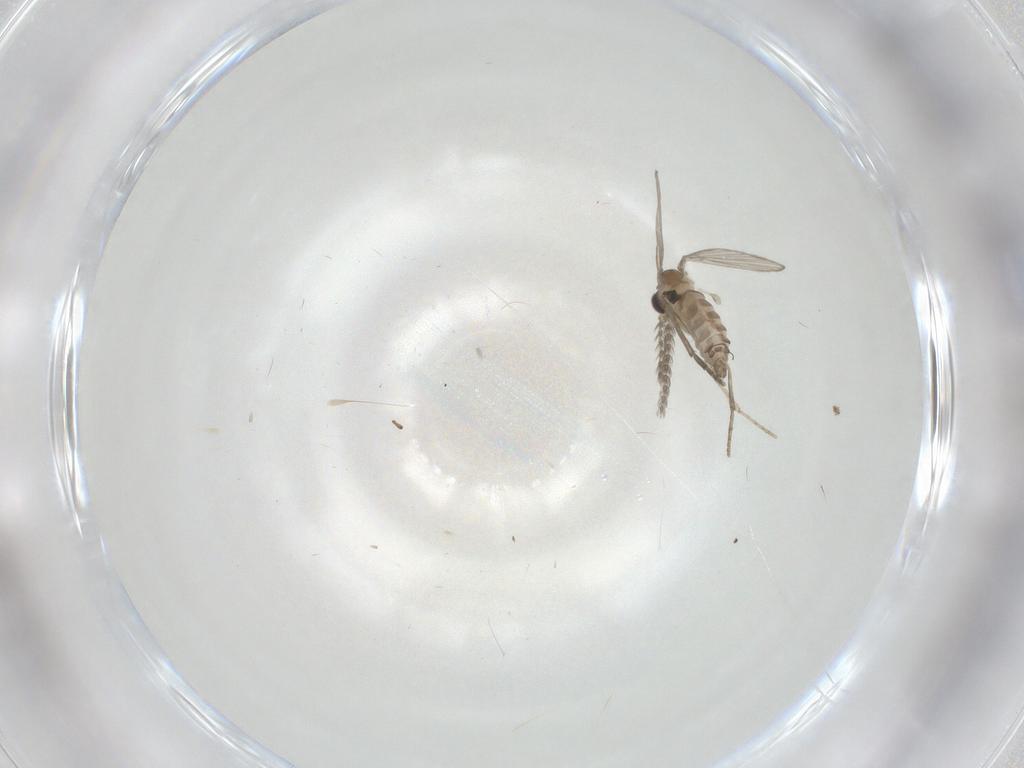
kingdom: Animalia
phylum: Arthropoda
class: Insecta
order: Diptera
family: Psychodidae
